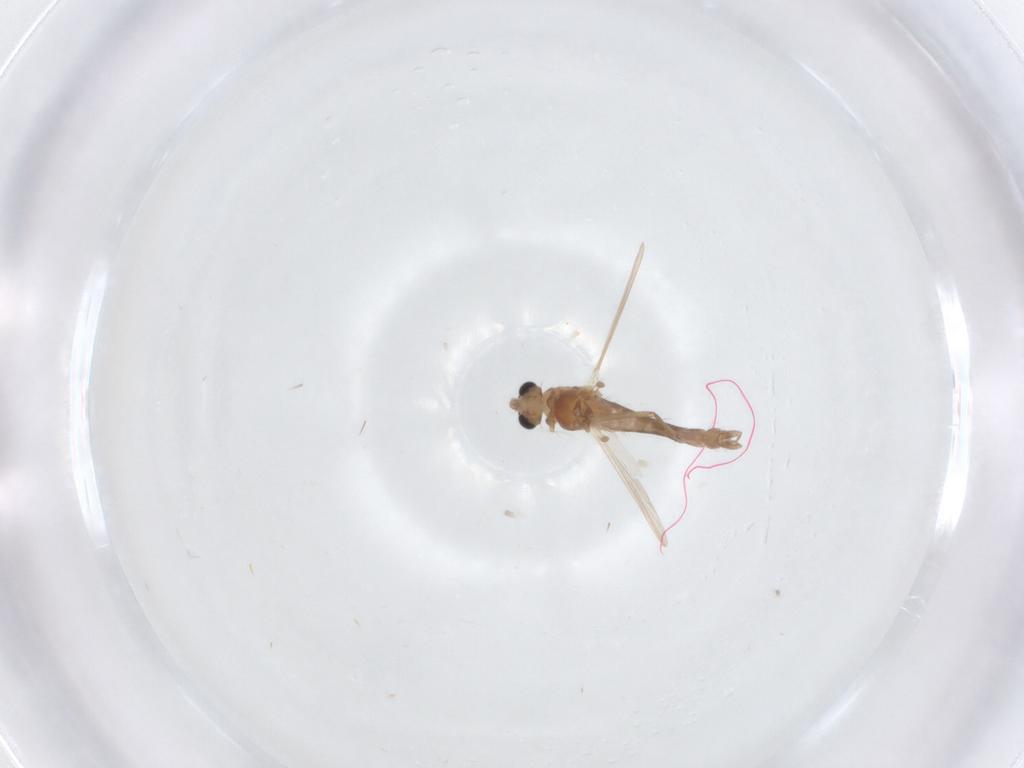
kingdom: Animalia
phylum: Arthropoda
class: Insecta
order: Diptera
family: Chironomidae
